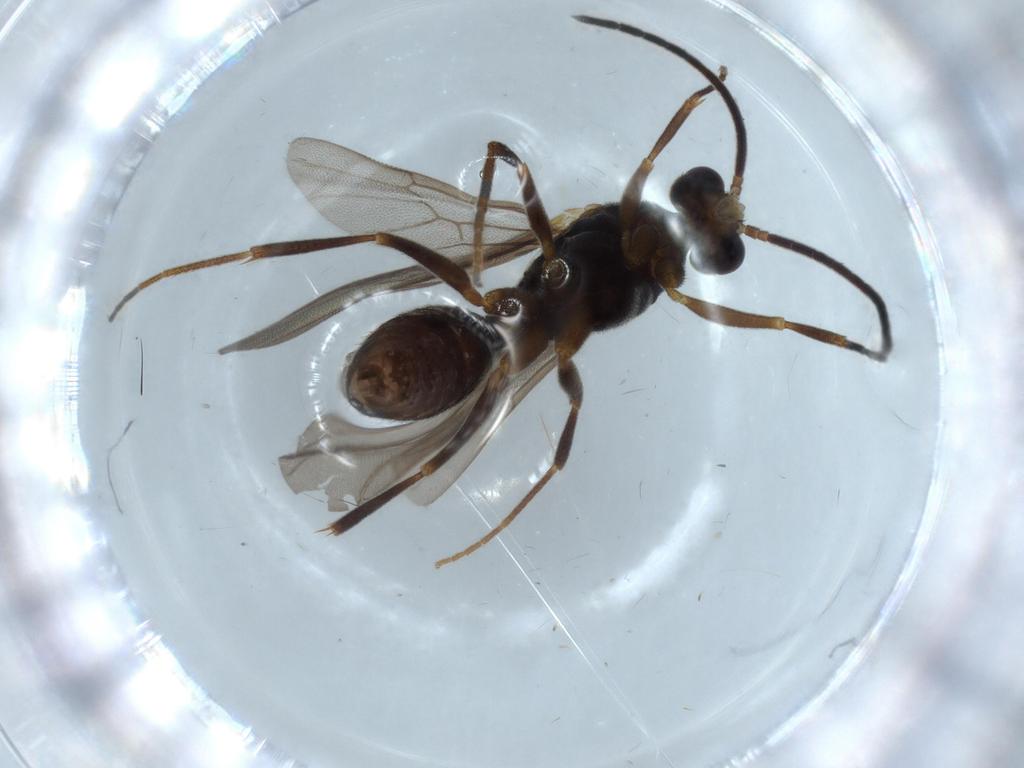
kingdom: Animalia
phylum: Arthropoda
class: Insecta
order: Hymenoptera
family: Formicidae
